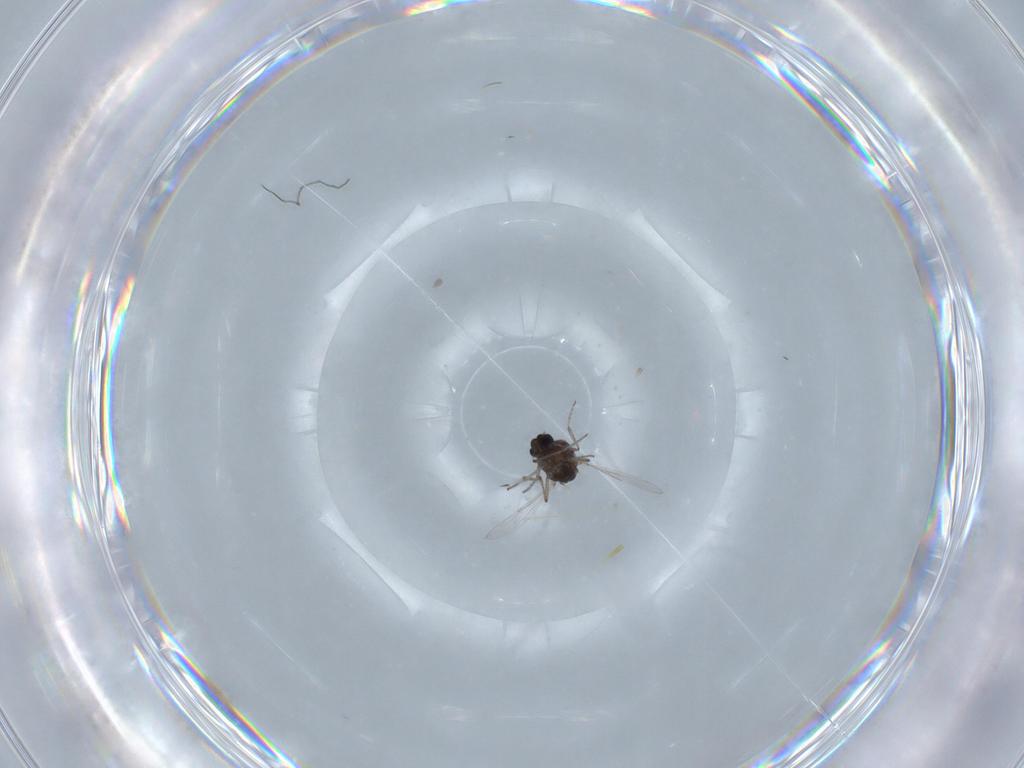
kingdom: Animalia
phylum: Arthropoda
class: Insecta
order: Diptera
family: Ceratopogonidae
